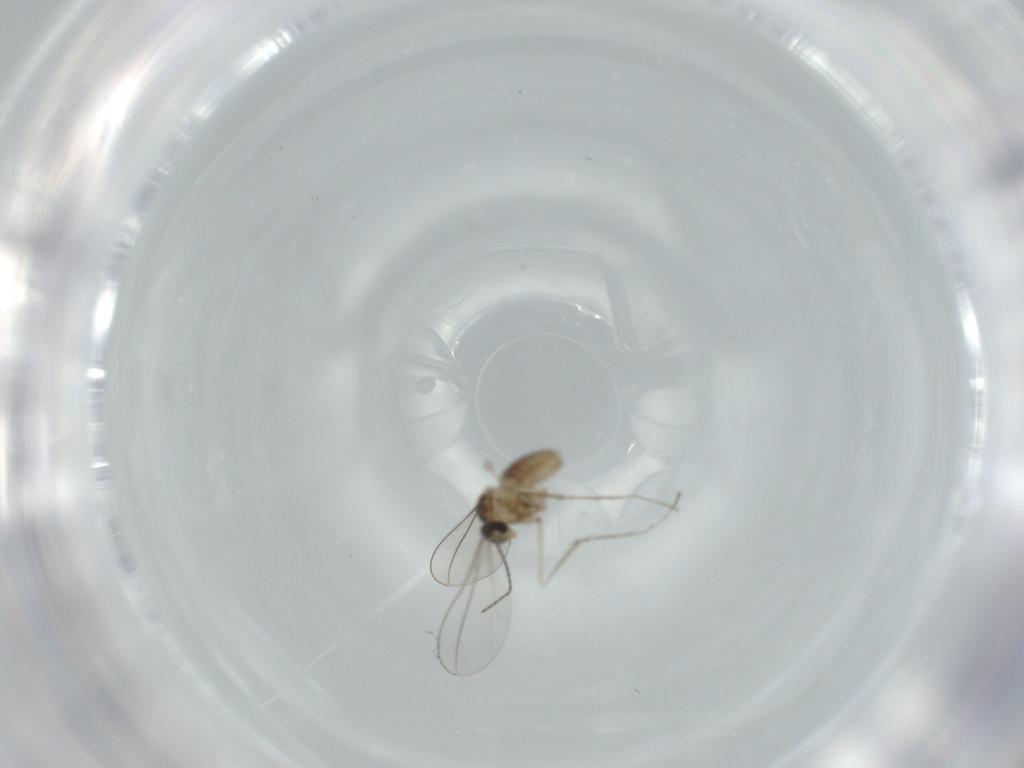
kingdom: Animalia
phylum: Arthropoda
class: Insecta
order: Diptera
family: Cecidomyiidae
